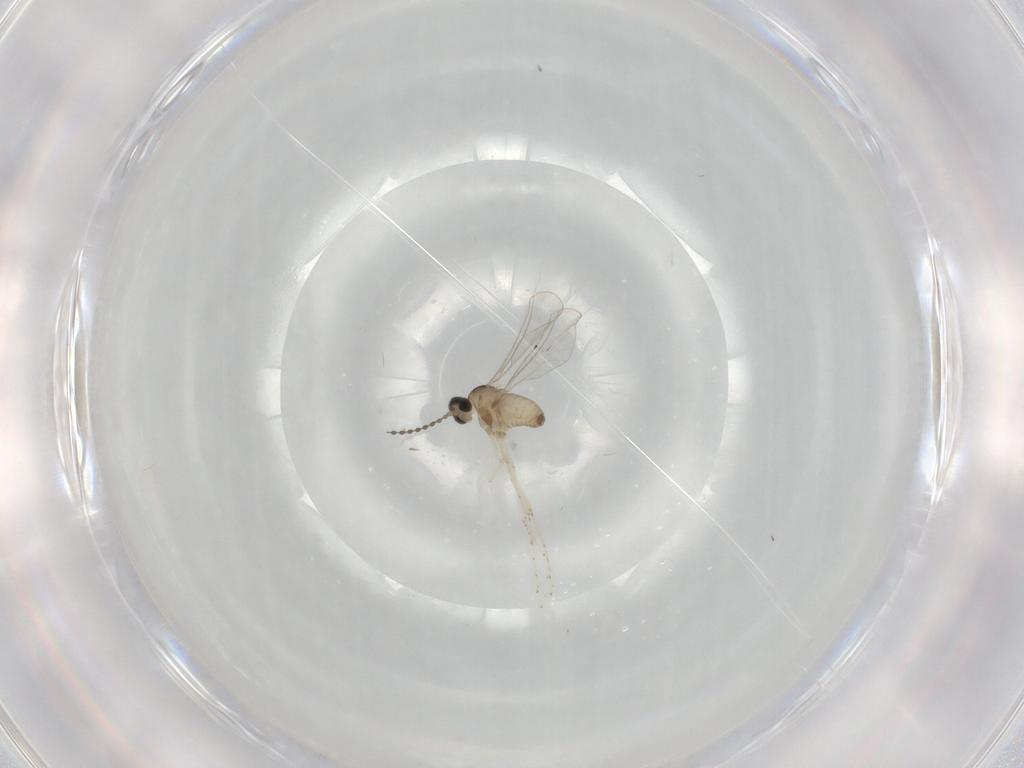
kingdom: Animalia
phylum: Arthropoda
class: Insecta
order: Diptera
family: Cecidomyiidae
